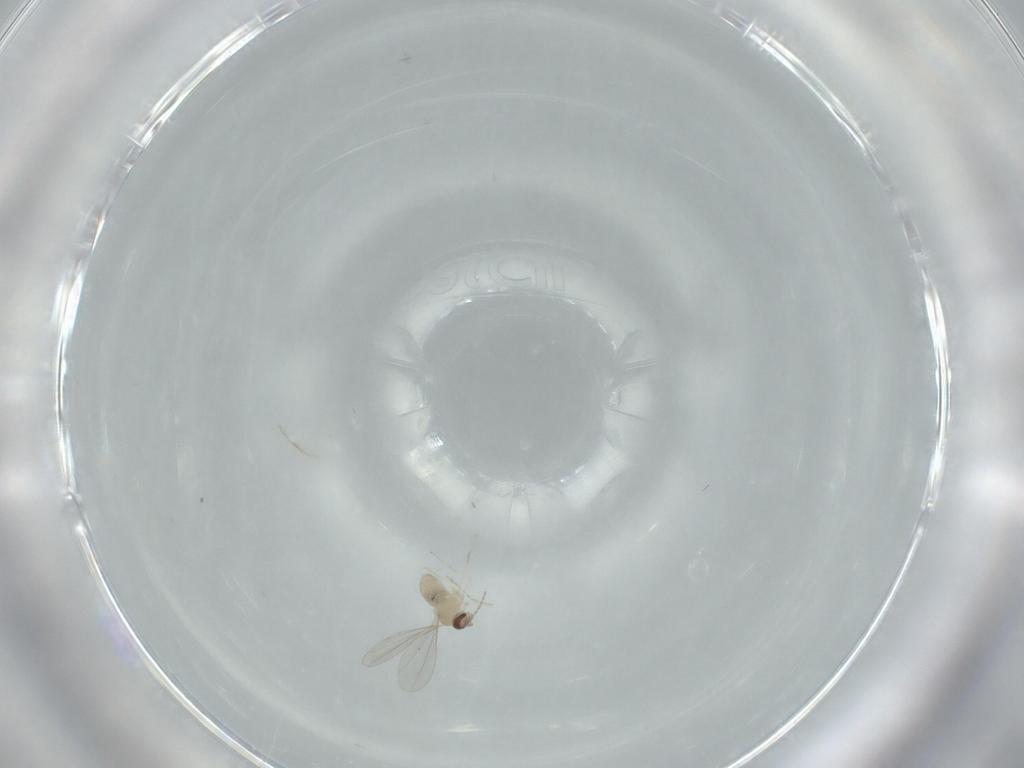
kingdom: Animalia
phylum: Arthropoda
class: Insecta
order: Diptera
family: Cecidomyiidae
